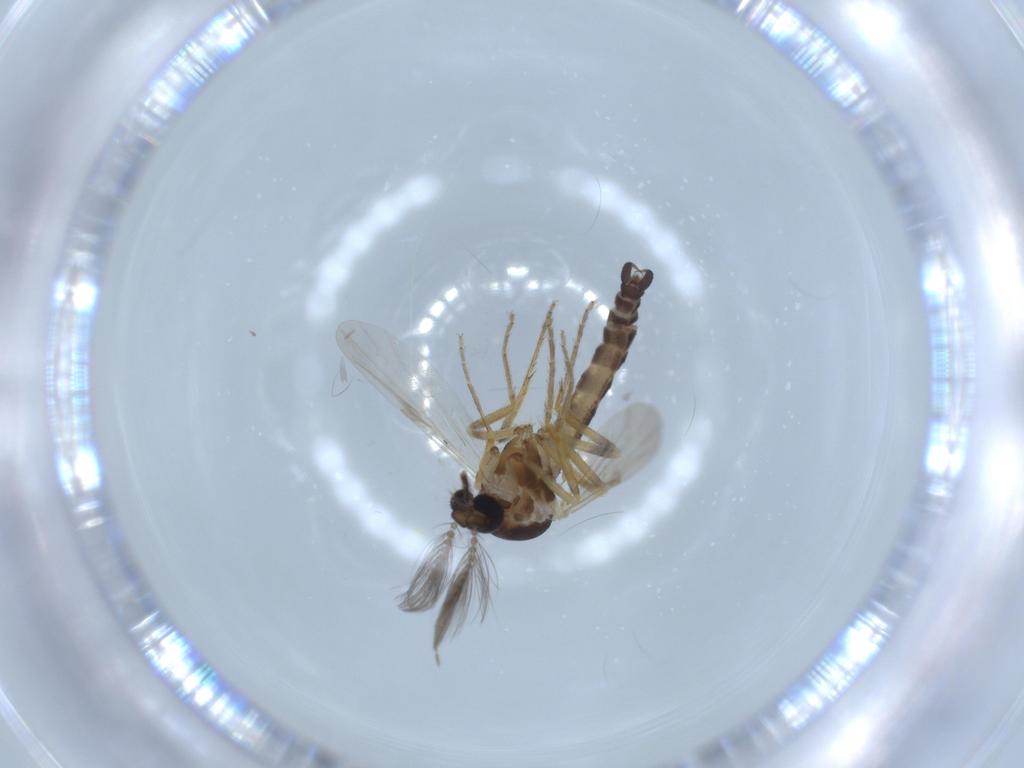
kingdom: Animalia
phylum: Arthropoda
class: Insecta
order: Diptera
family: Ceratopogonidae
